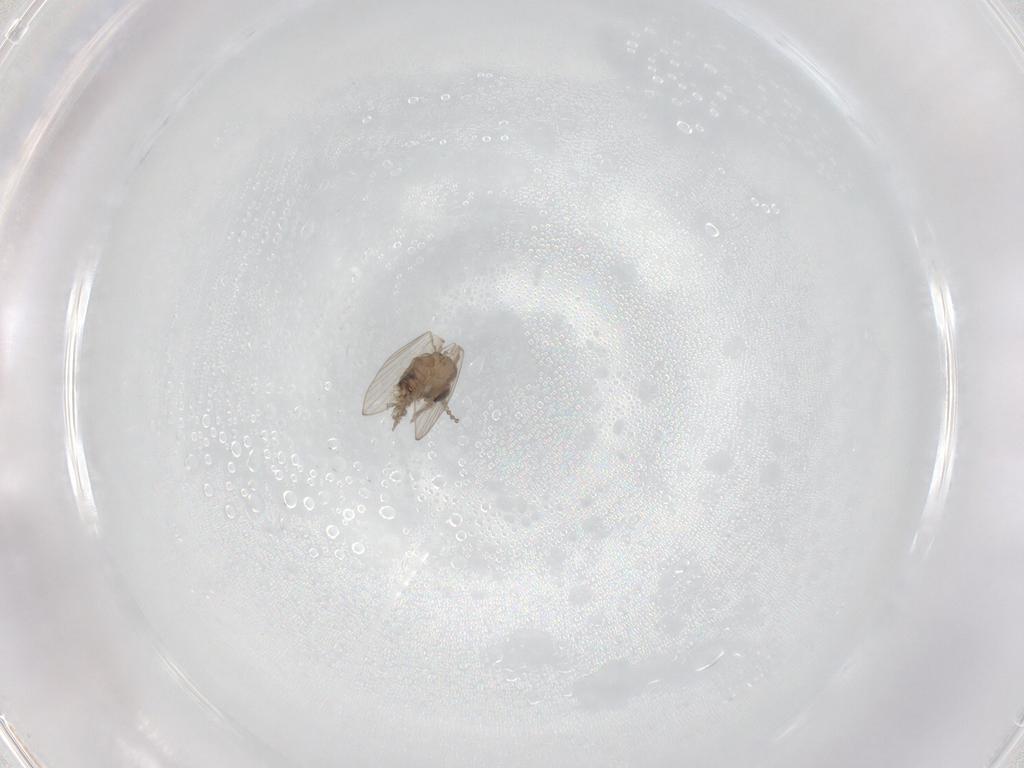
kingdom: Animalia
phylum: Arthropoda
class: Insecta
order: Diptera
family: Psychodidae
